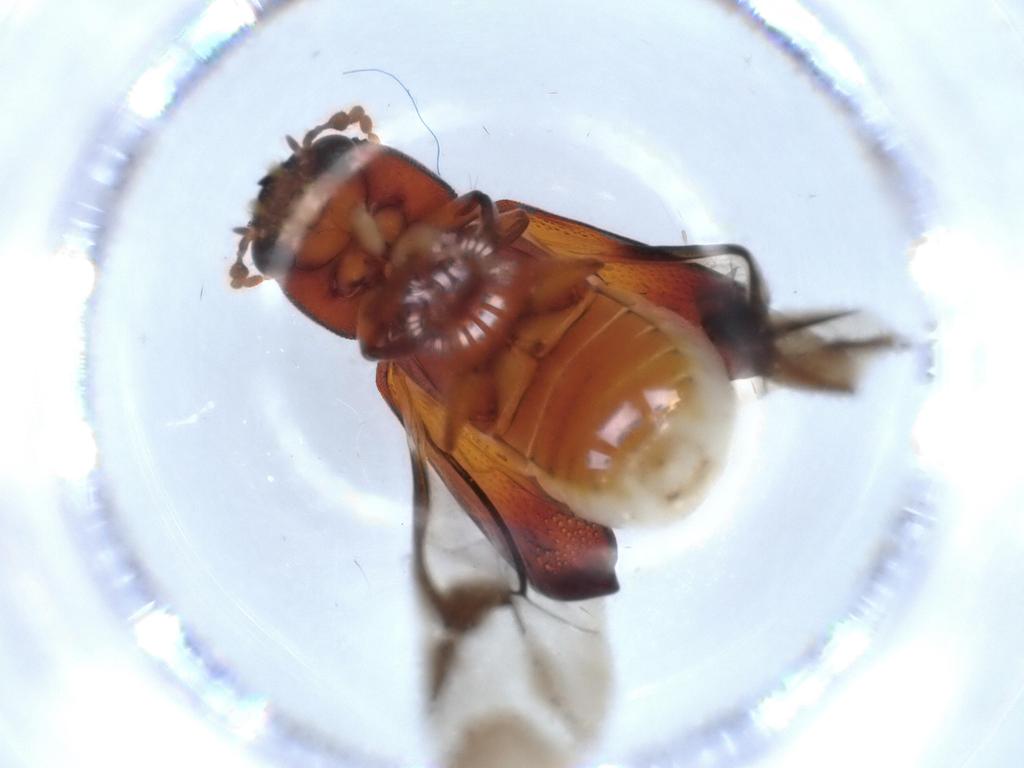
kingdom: Animalia
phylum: Arthropoda
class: Insecta
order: Coleoptera
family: Bostrichidae
